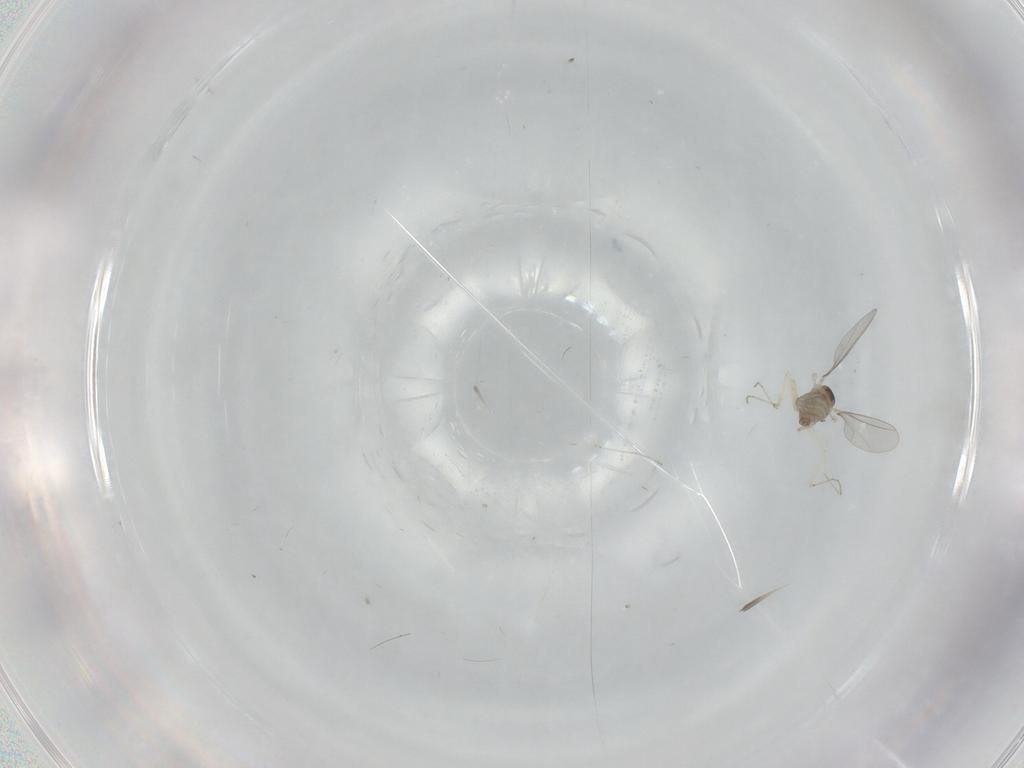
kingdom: Animalia
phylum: Arthropoda
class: Insecta
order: Diptera
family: Cecidomyiidae
